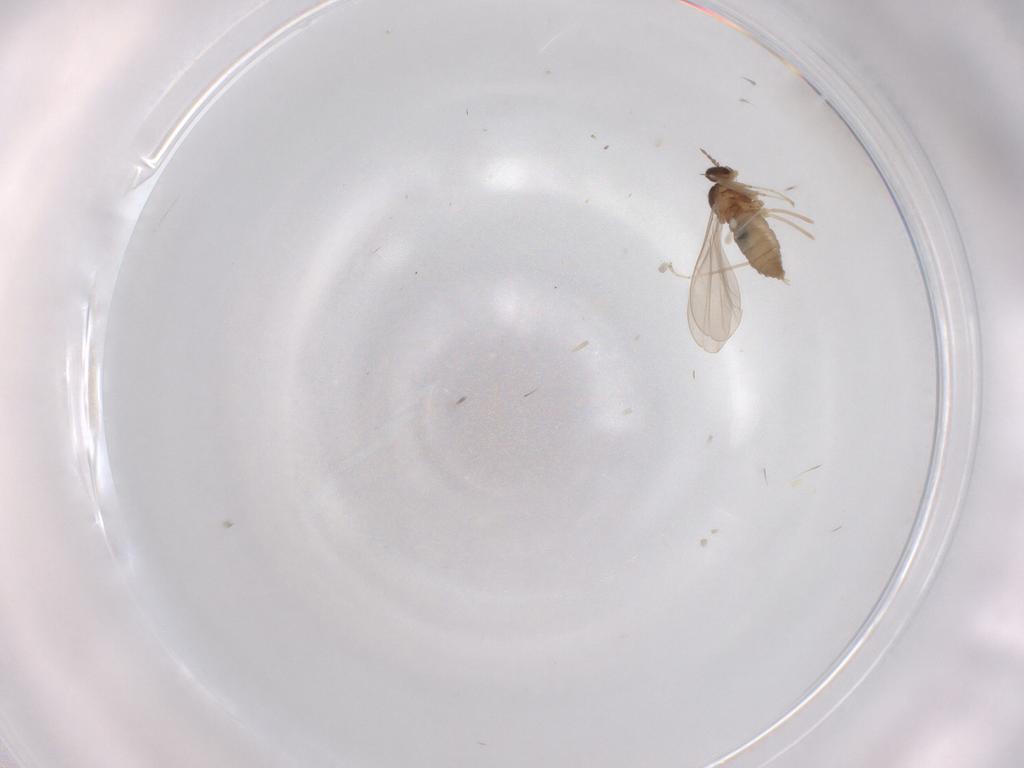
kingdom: Animalia
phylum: Arthropoda
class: Insecta
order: Diptera
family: Cecidomyiidae
